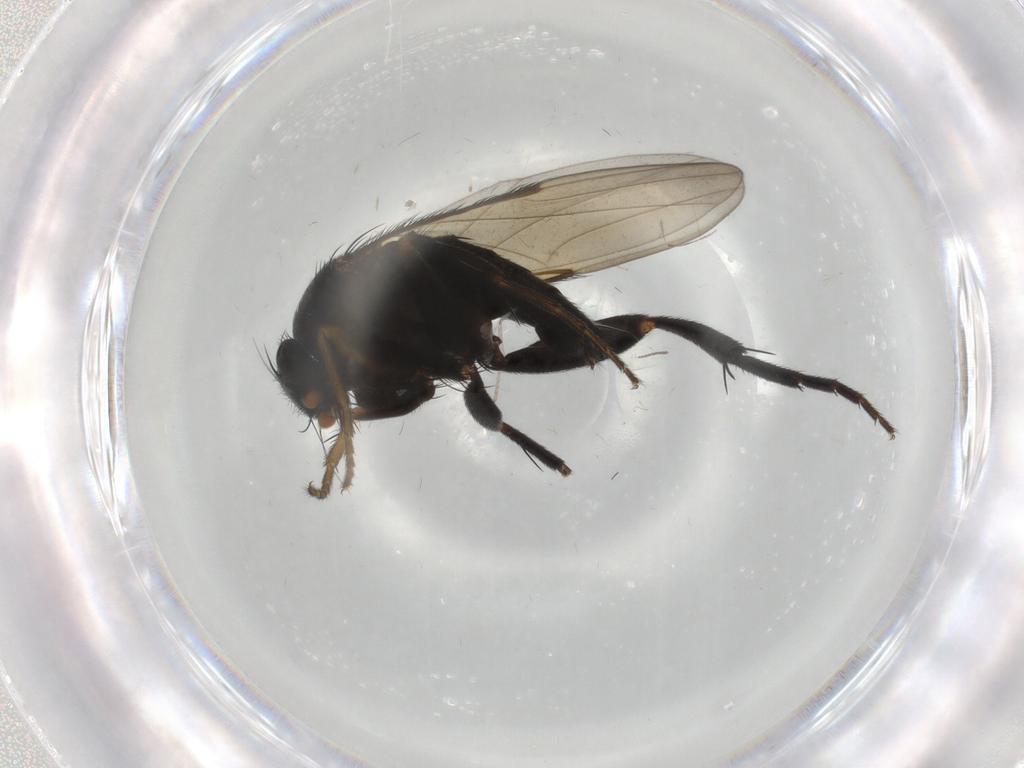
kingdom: Animalia
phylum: Arthropoda
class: Insecta
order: Diptera
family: Phoridae
